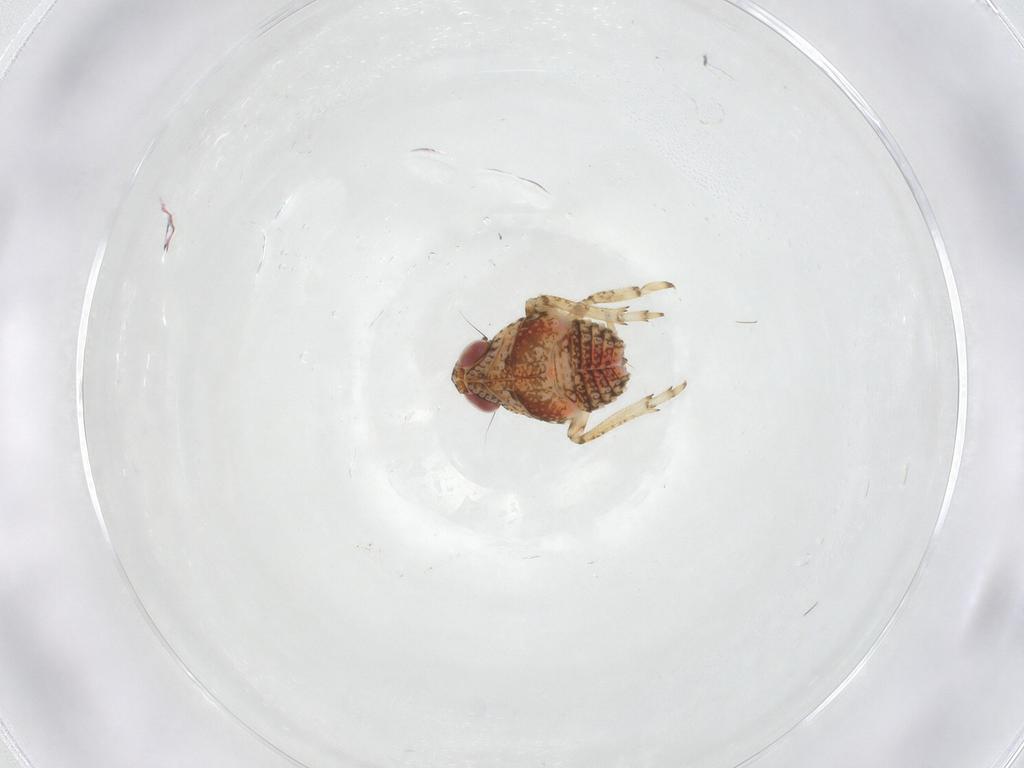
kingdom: Animalia
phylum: Arthropoda
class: Insecta
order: Hemiptera
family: Issidae
